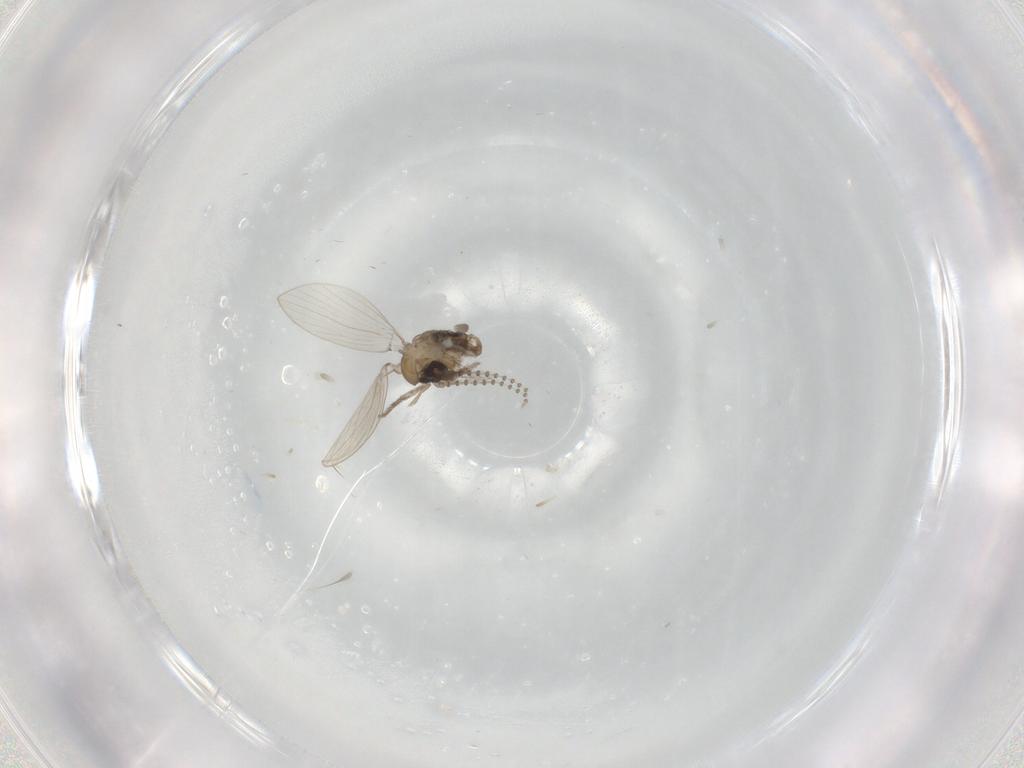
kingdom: Animalia
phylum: Arthropoda
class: Insecta
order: Diptera
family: Psychodidae
